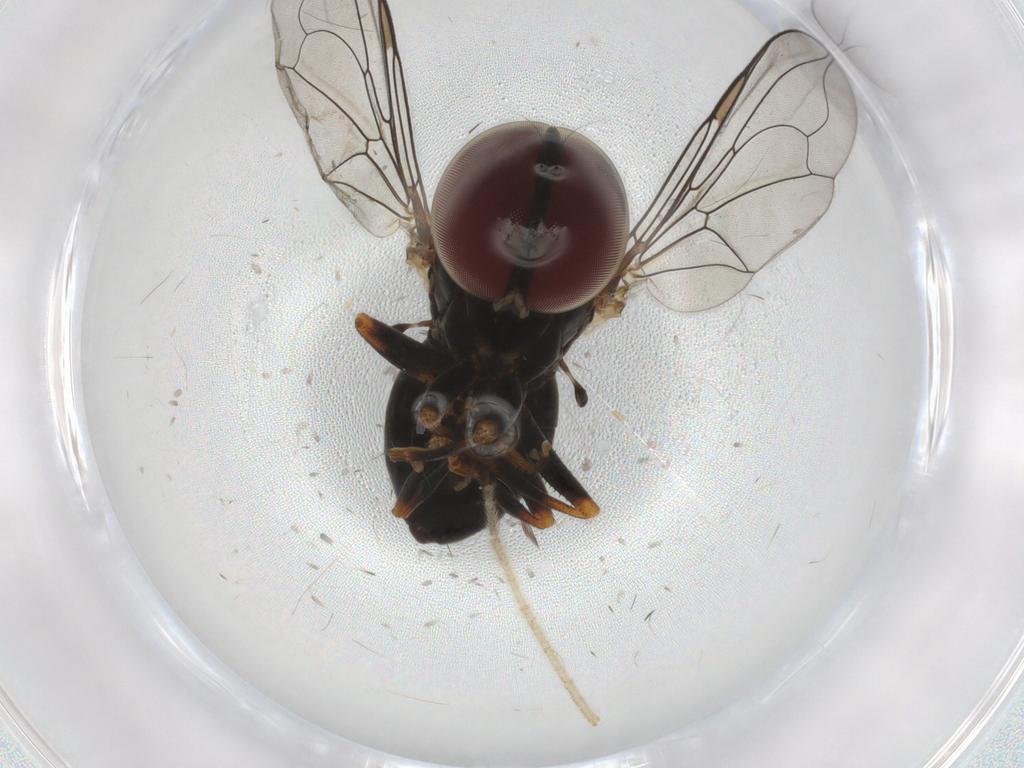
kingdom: Animalia
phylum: Arthropoda
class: Insecta
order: Diptera
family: Pipunculidae
